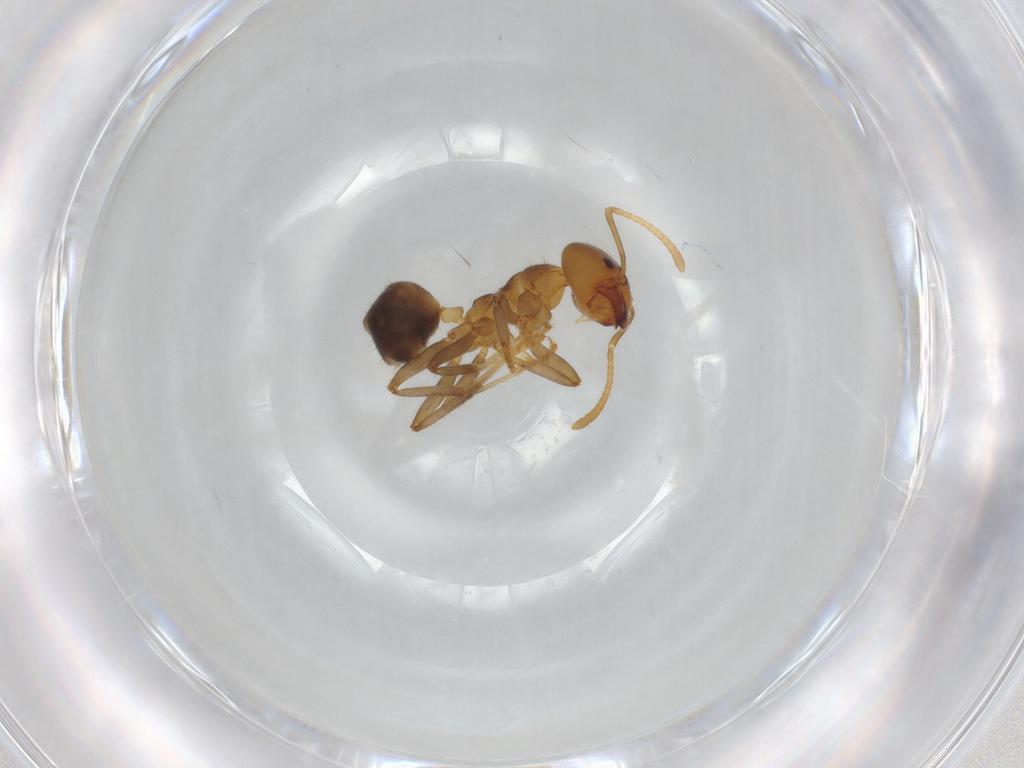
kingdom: Animalia
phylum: Arthropoda
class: Insecta
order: Hymenoptera
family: Formicidae
